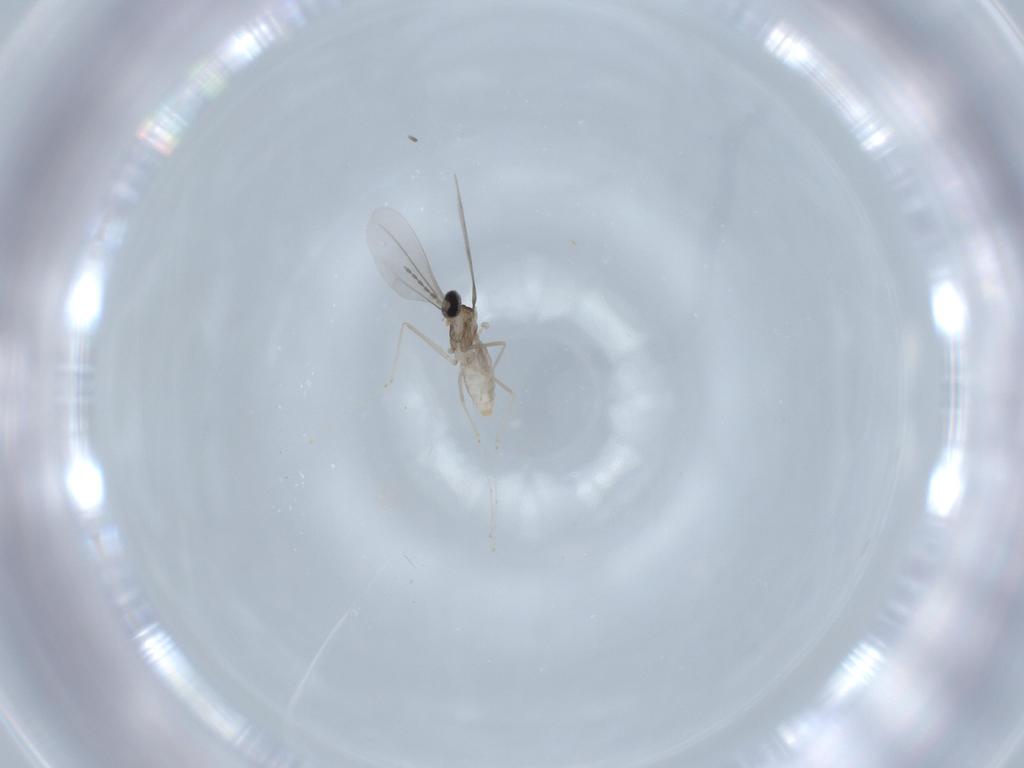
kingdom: Animalia
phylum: Arthropoda
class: Insecta
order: Diptera
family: Cecidomyiidae
